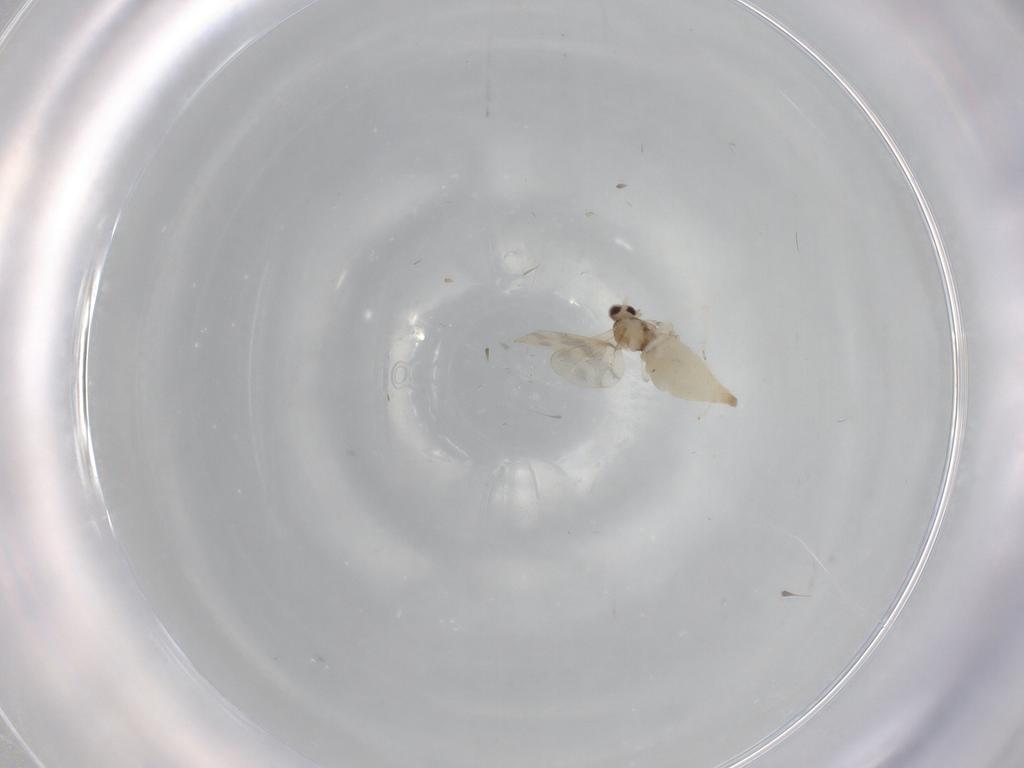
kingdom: Animalia
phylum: Arthropoda
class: Insecta
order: Diptera
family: Cecidomyiidae
